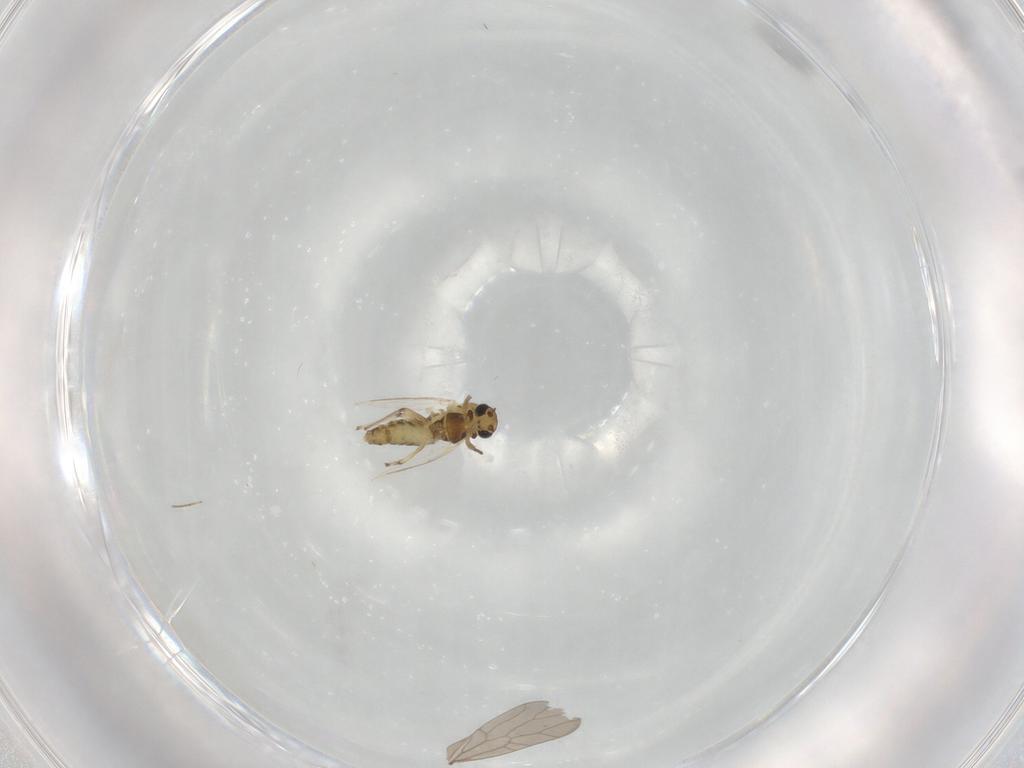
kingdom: Animalia
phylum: Arthropoda
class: Insecta
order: Diptera
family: Chironomidae
